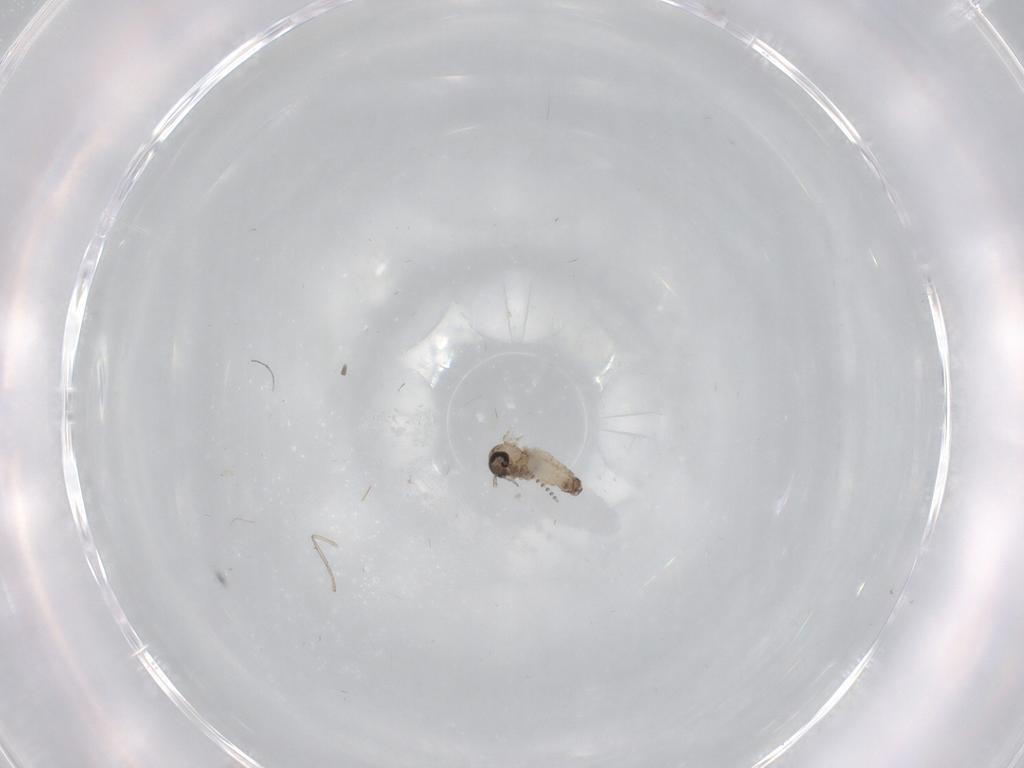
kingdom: Animalia
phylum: Arthropoda
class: Insecta
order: Diptera
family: Psychodidae
